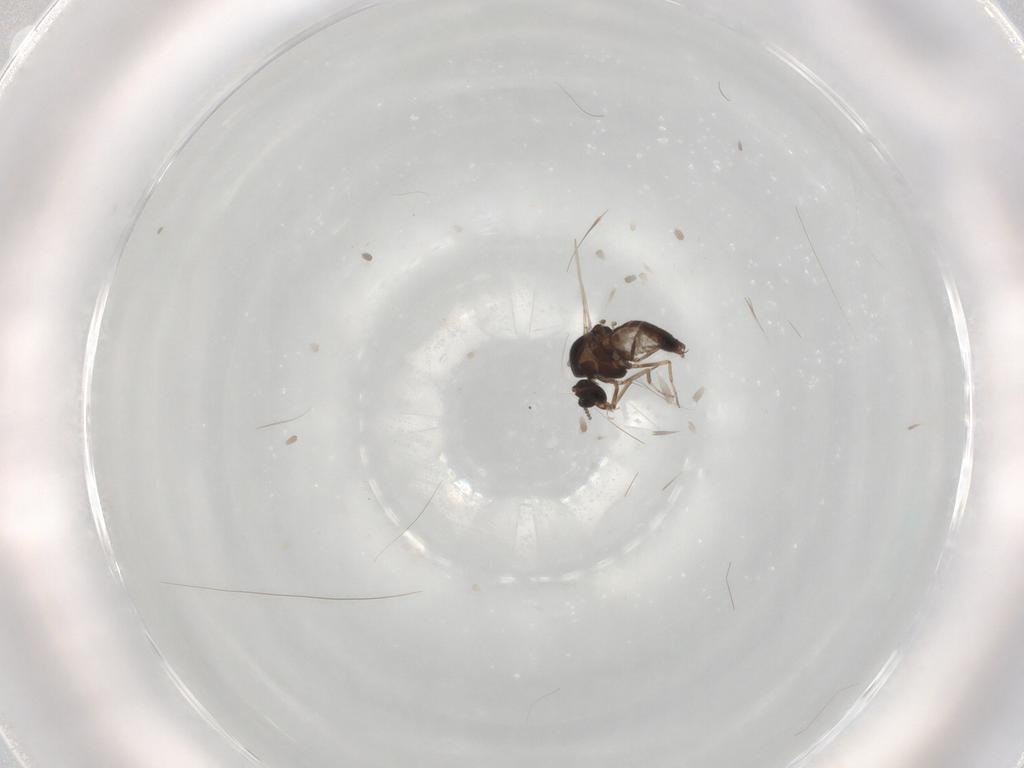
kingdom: Animalia
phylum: Arthropoda
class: Insecta
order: Diptera
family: Ceratopogonidae
